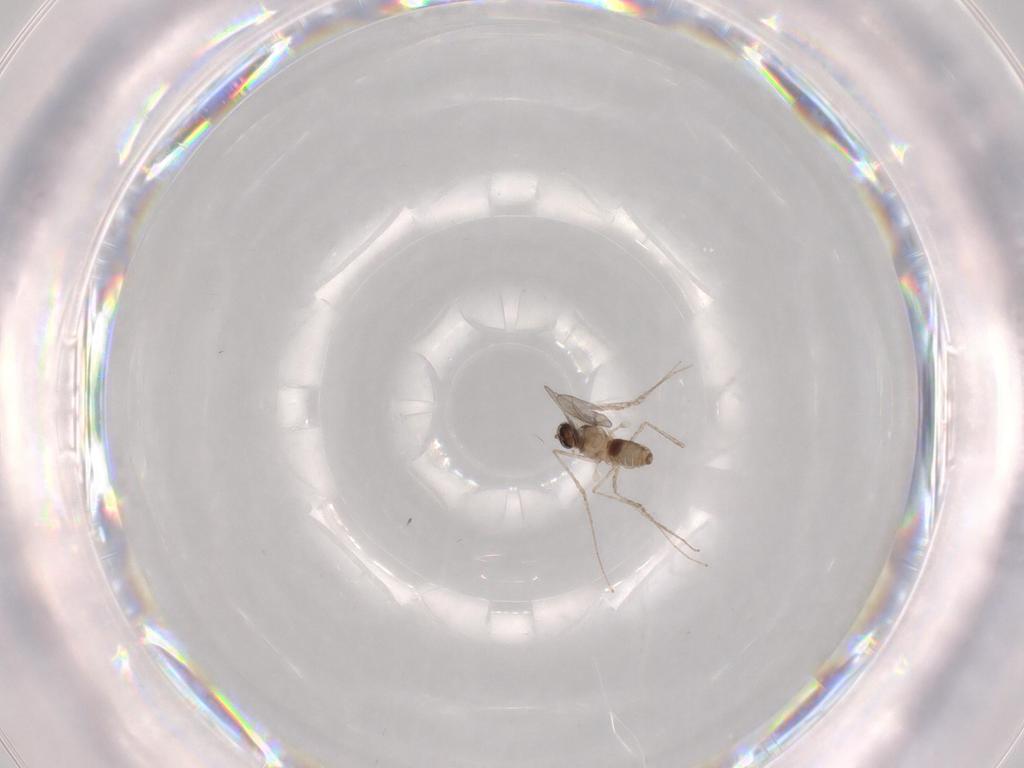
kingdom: Animalia
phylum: Arthropoda
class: Insecta
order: Diptera
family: Cecidomyiidae
